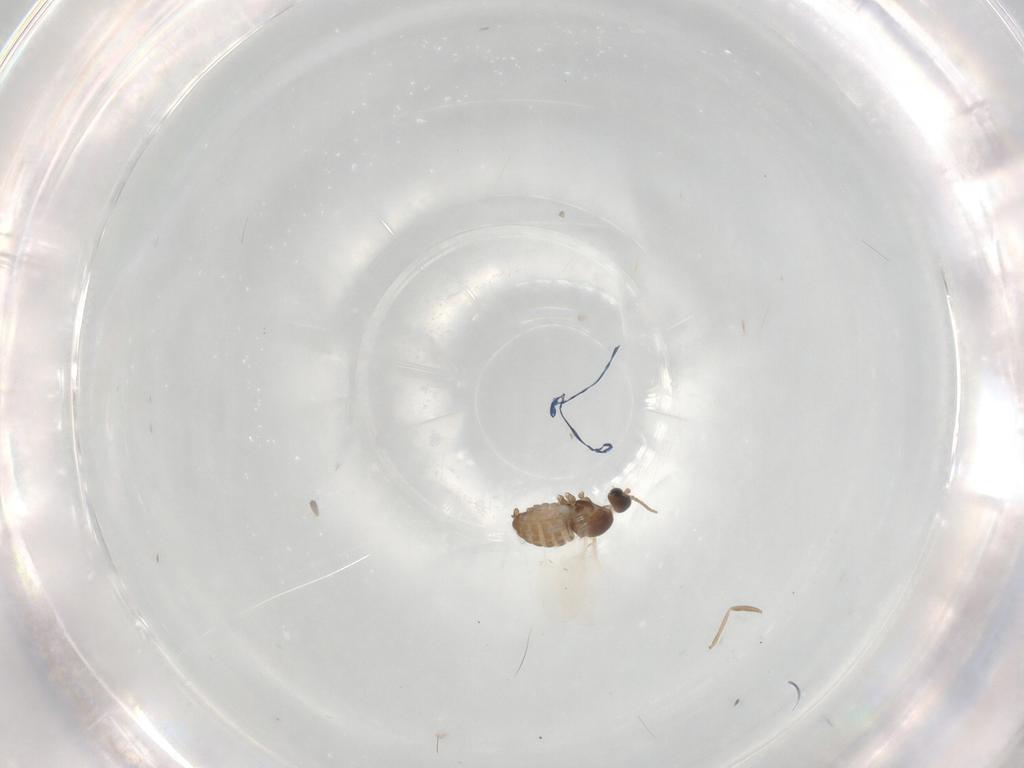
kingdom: Animalia
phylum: Arthropoda
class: Insecta
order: Diptera
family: Cecidomyiidae
